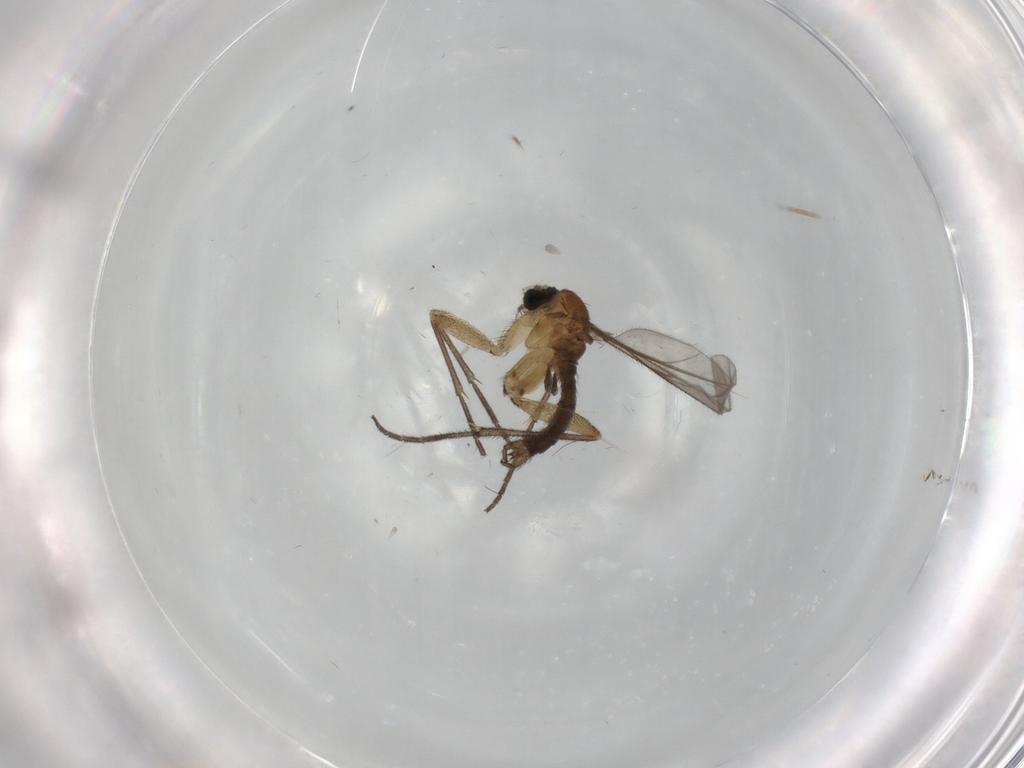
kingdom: Animalia
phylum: Arthropoda
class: Insecta
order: Diptera
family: Sciaridae
